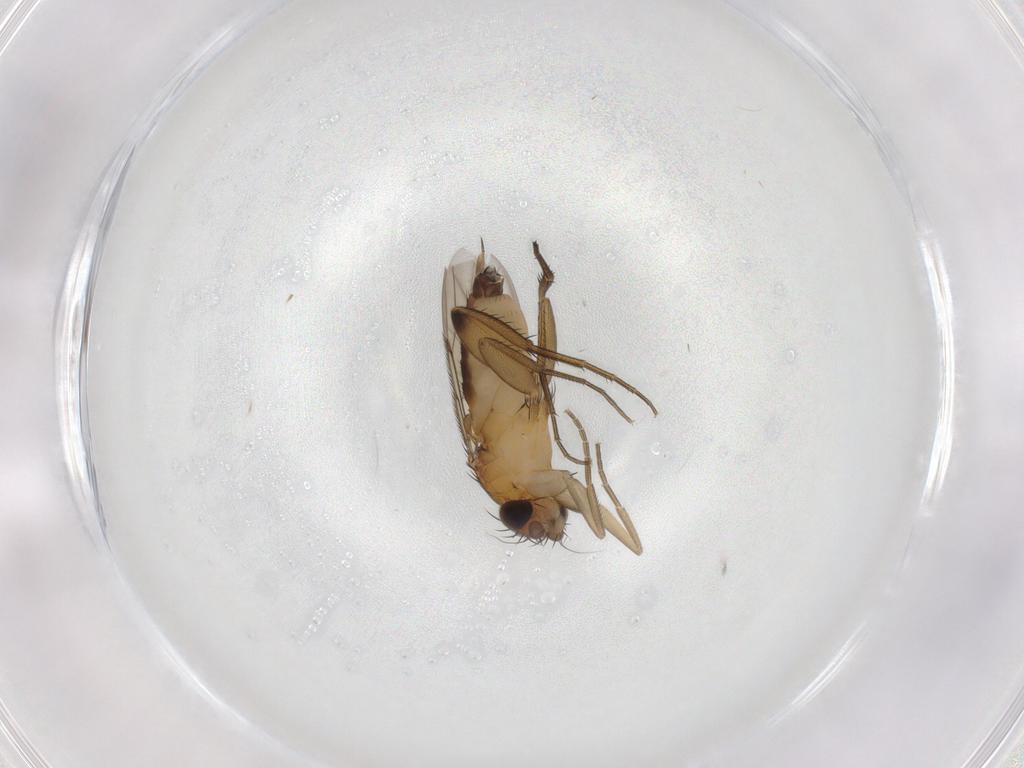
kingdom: Animalia
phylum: Arthropoda
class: Insecta
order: Diptera
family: Phoridae
